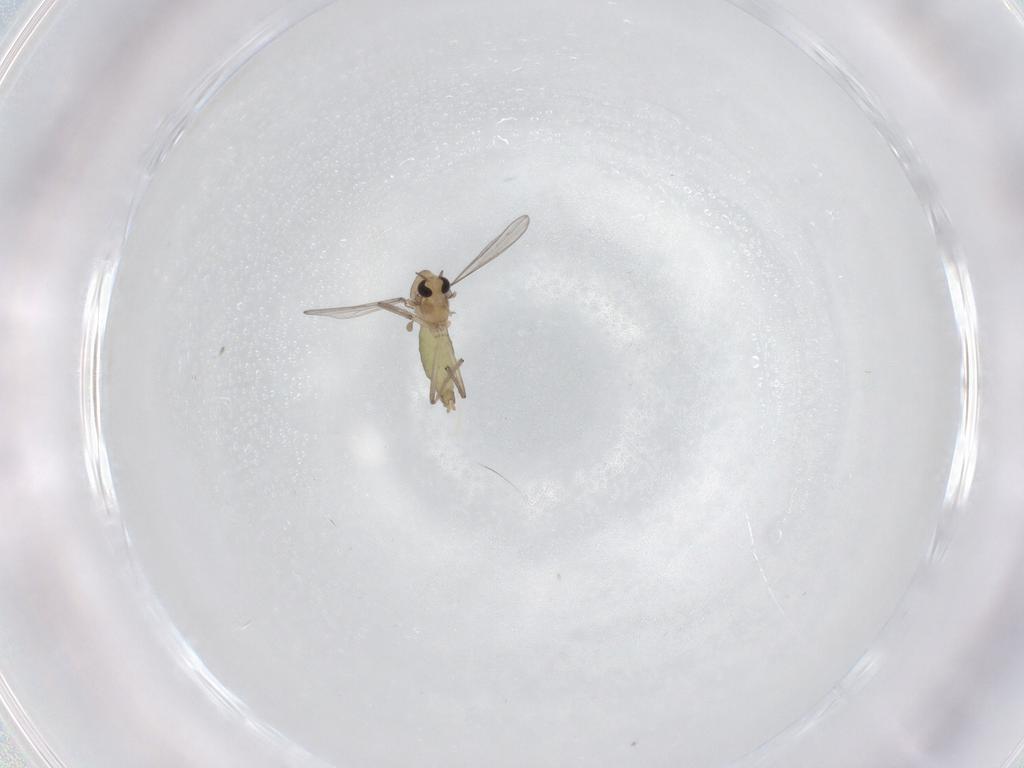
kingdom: Animalia
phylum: Arthropoda
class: Insecta
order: Diptera
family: Chironomidae
